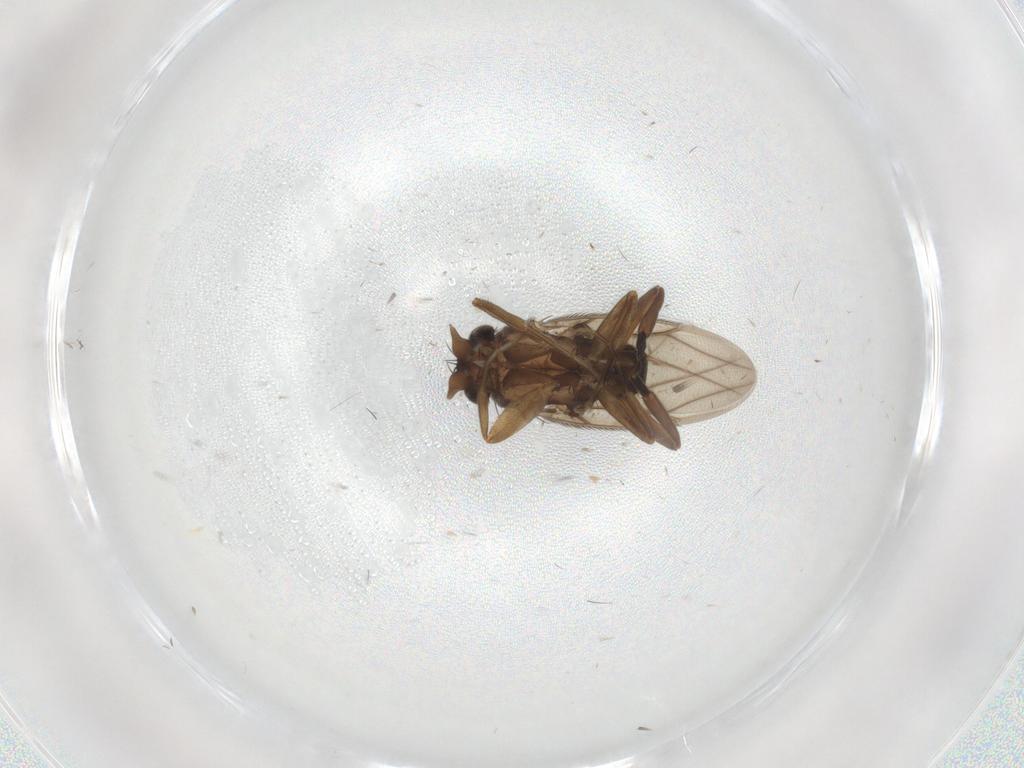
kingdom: Animalia
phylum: Arthropoda
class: Insecta
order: Diptera
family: Cecidomyiidae
